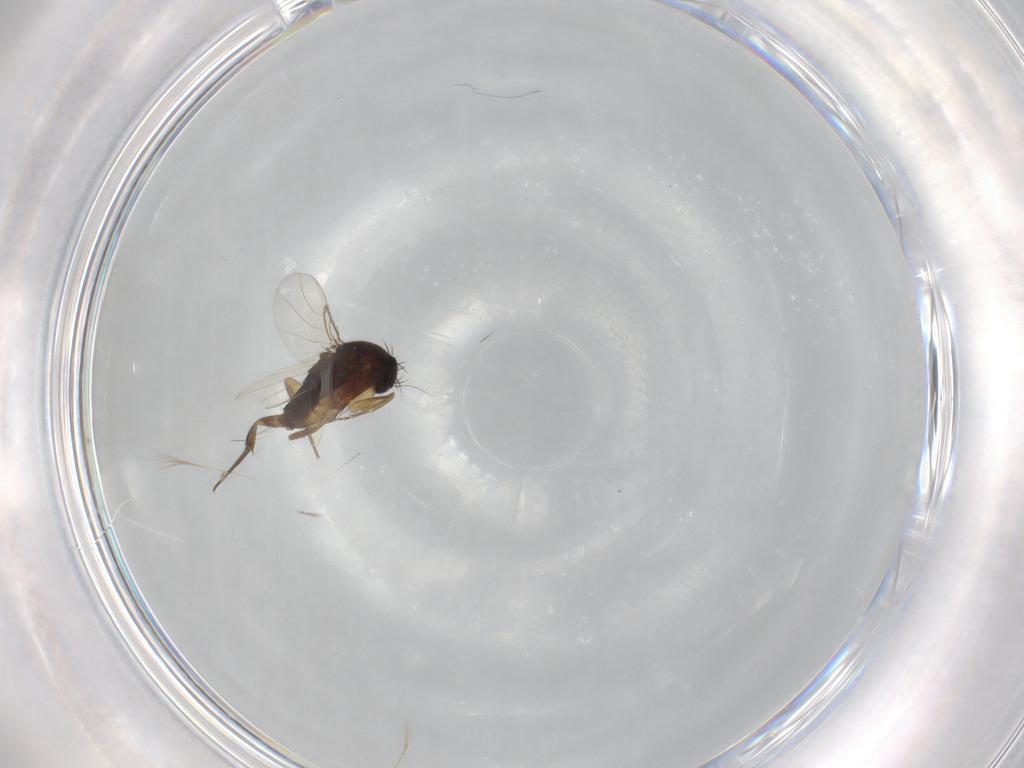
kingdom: Animalia
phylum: Arthropoda
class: Insecta
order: Diptera
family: Phoridae
